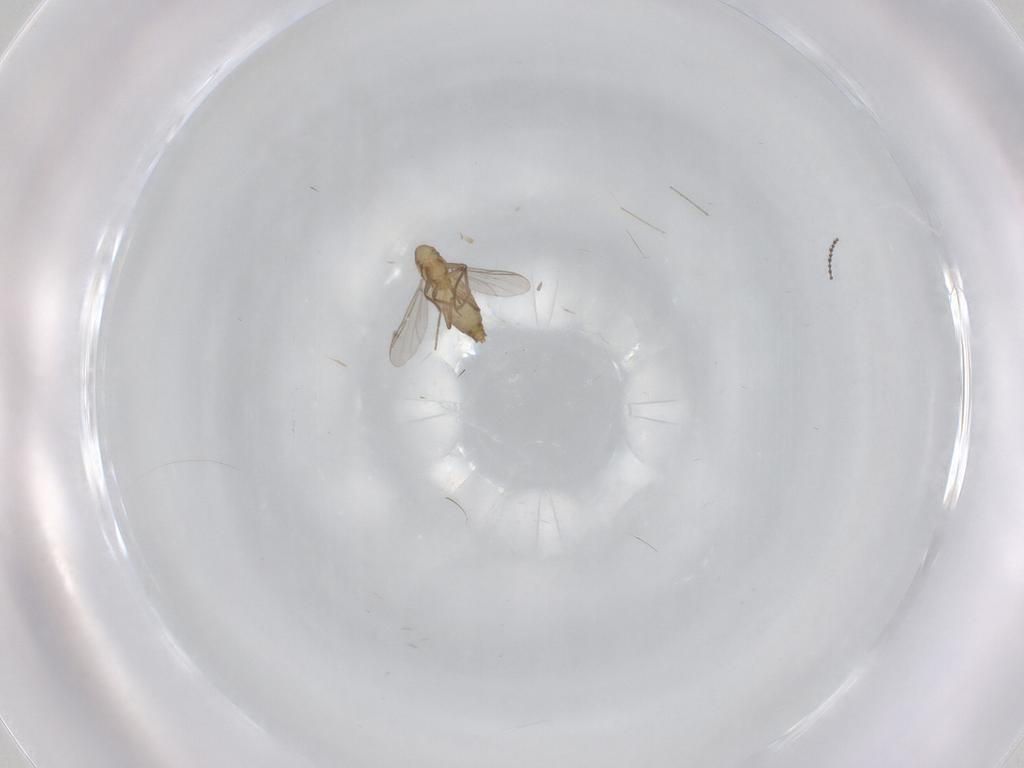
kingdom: Animalia
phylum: Arthropoda
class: Insecta
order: Diptera
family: Chironomidae
